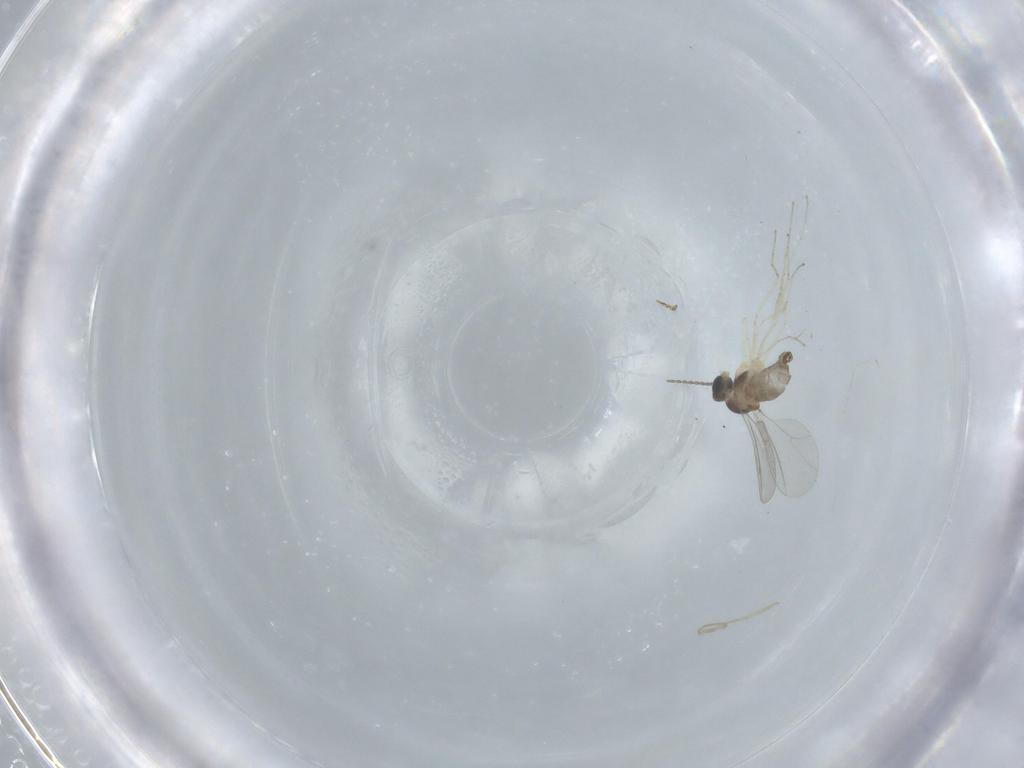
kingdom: Animalia
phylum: Arthropoda
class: Insecta
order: Diptera
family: Cecidomyiidae
